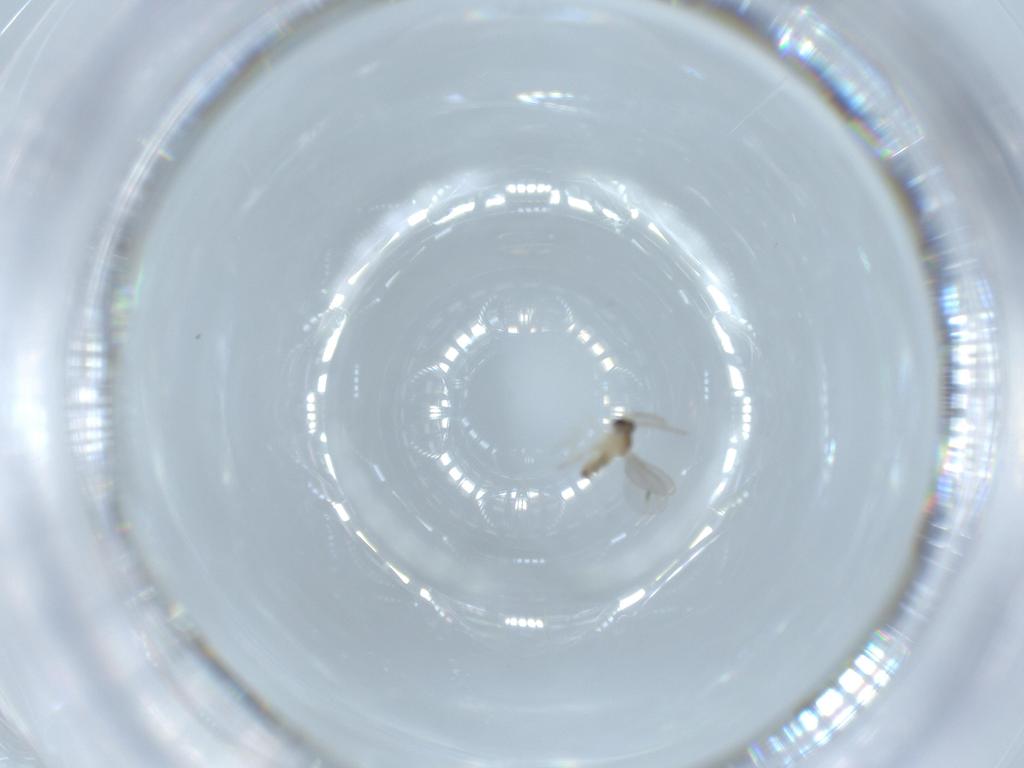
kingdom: Animalia
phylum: Arthropoda
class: Insecta
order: Diptera
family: Cecidomyiidae
